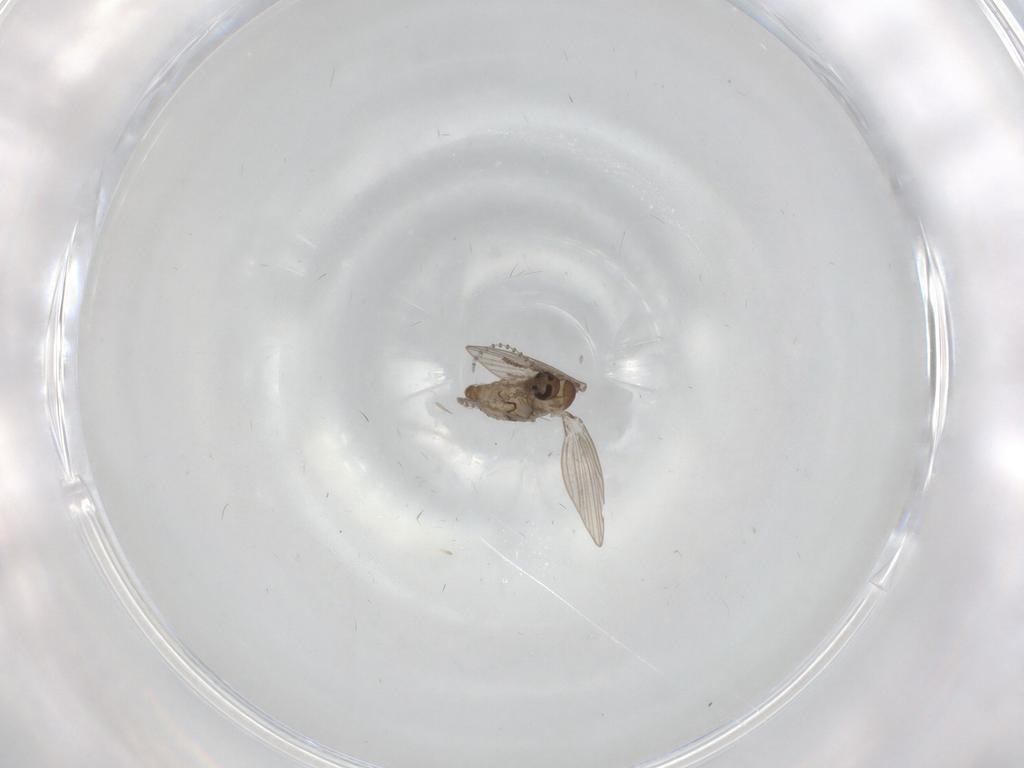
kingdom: Animalia
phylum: Arthropoda
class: Insecta
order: Diptera
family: Psychodidae
